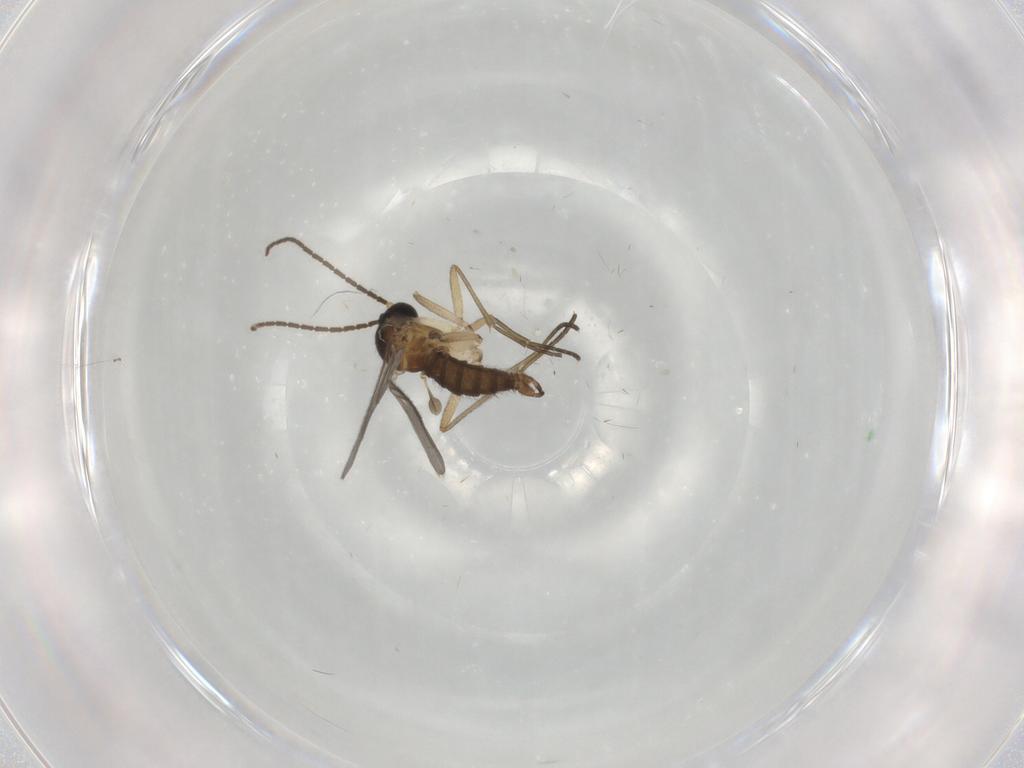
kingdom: Animalia
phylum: Arthropoda
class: Insecta
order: Diptera
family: Sciaridae
